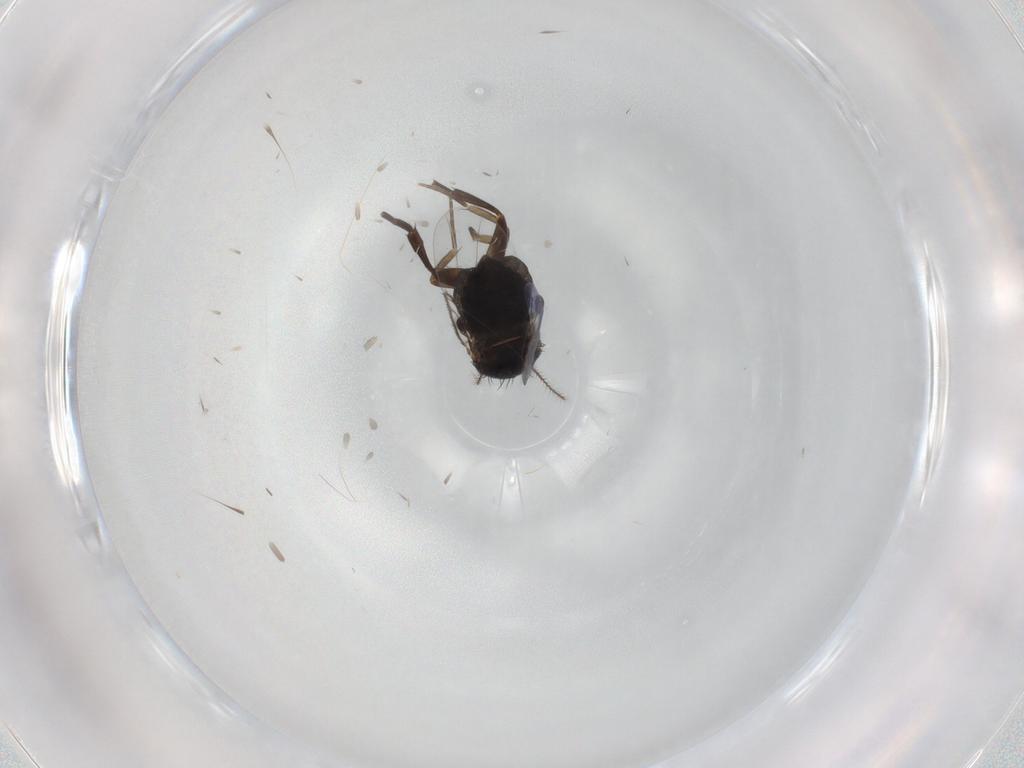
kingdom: Animalia
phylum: Arthropoda
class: Insecta
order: Diptera
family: Phoridae
